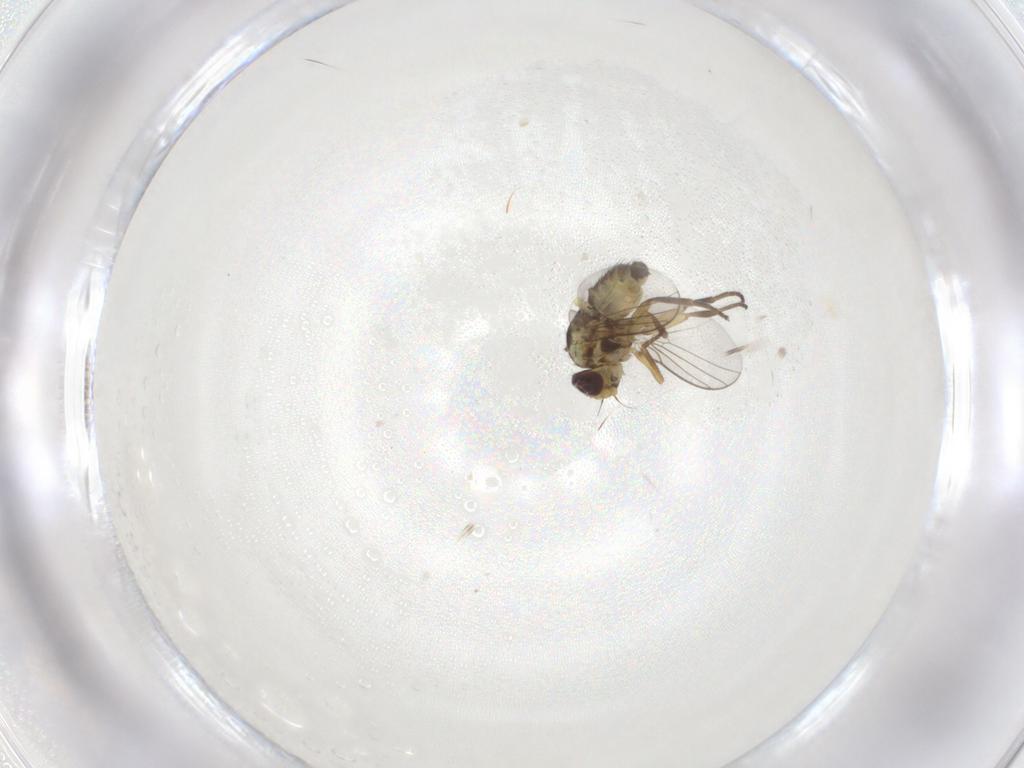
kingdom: Animalia
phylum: Arthropoda
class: Insecta
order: Diptera
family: Agromyzidae
